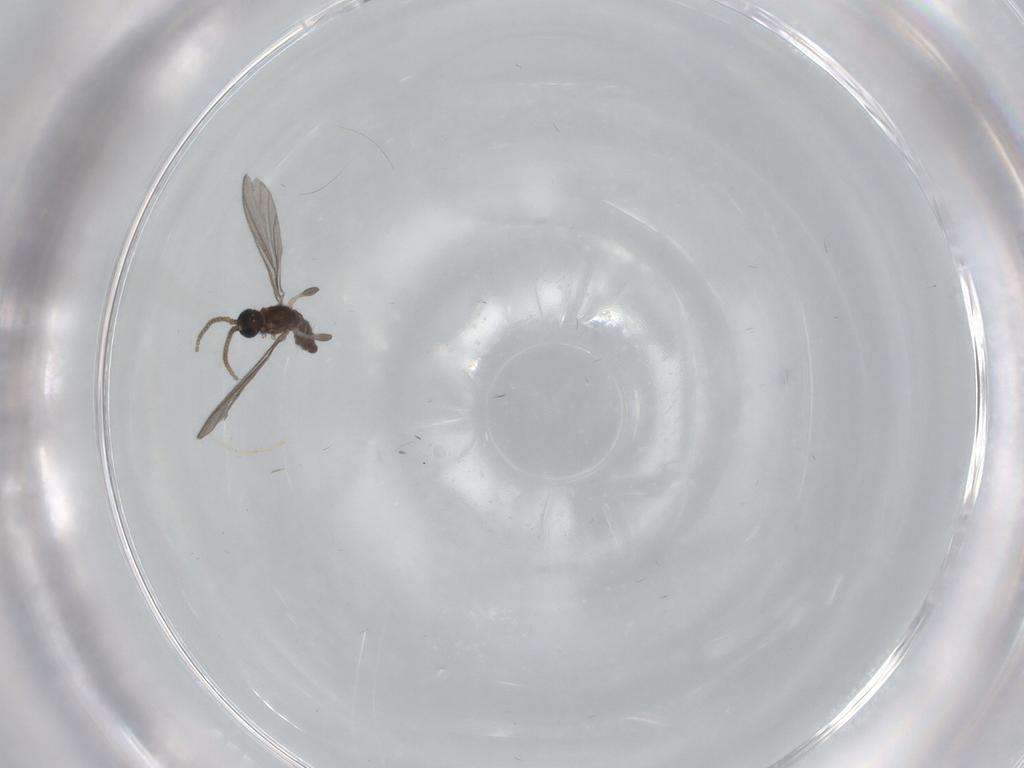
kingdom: Animalia
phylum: Arthropoda
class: Insecta
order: Diptera
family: Sciaridae
